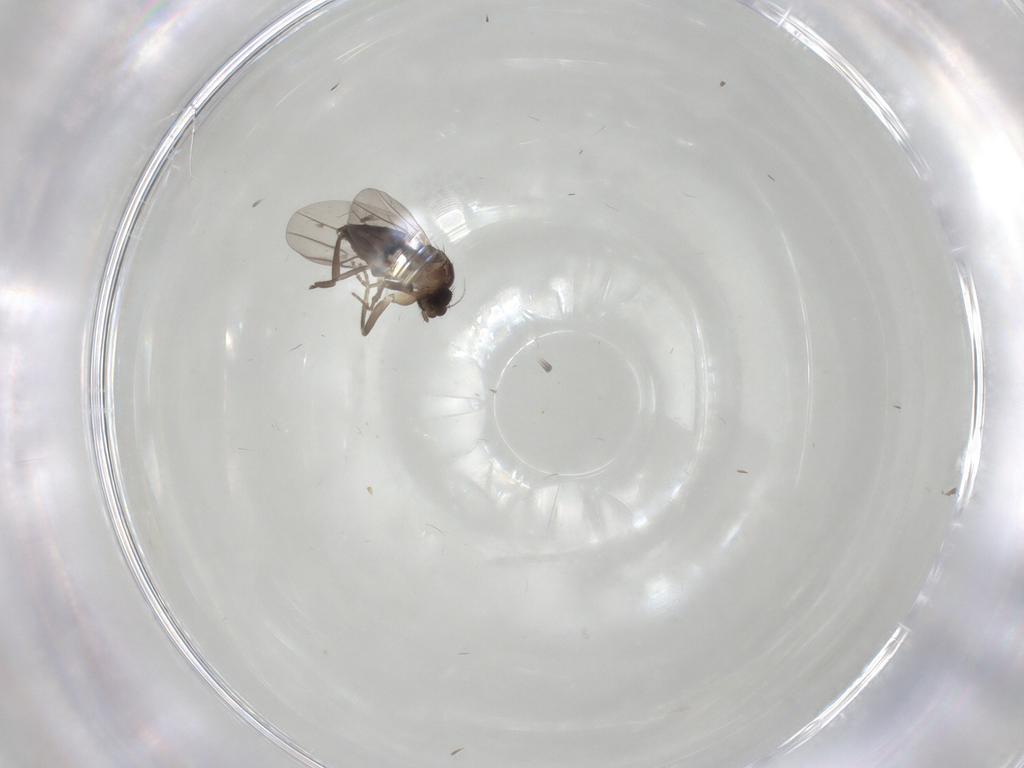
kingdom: Animalia
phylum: Arthropoda
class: Insecta
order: Diptera
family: Phoridae
